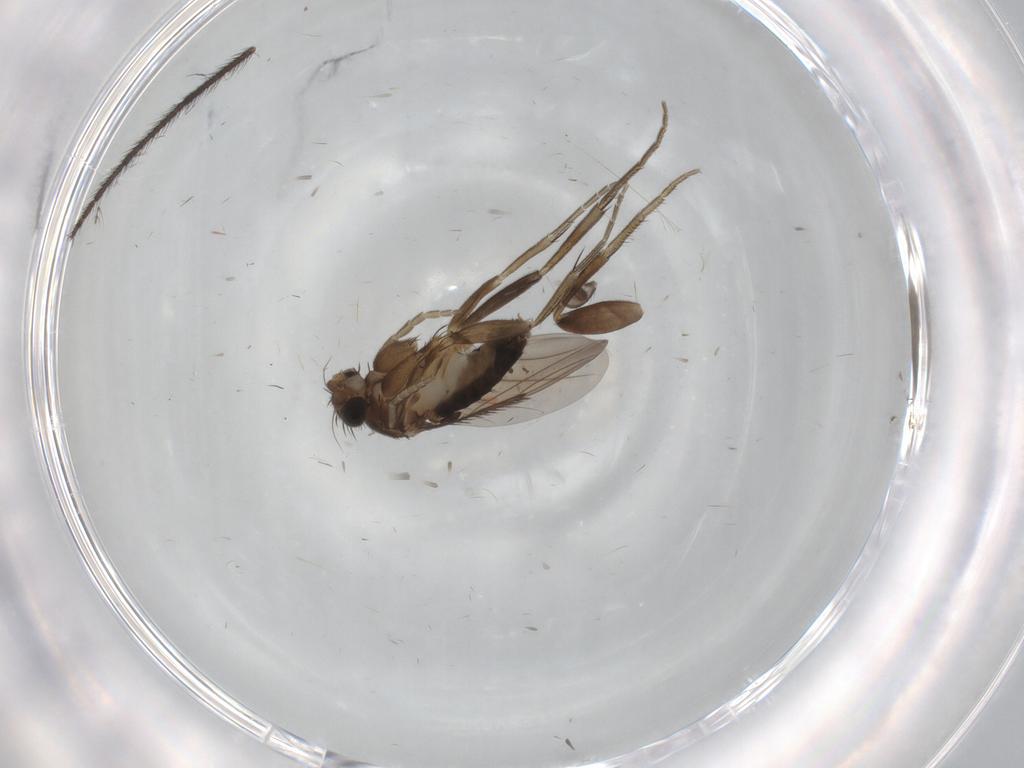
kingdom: Animalia
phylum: Arthropoda
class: Insecta
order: Diptera
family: Phoridae
